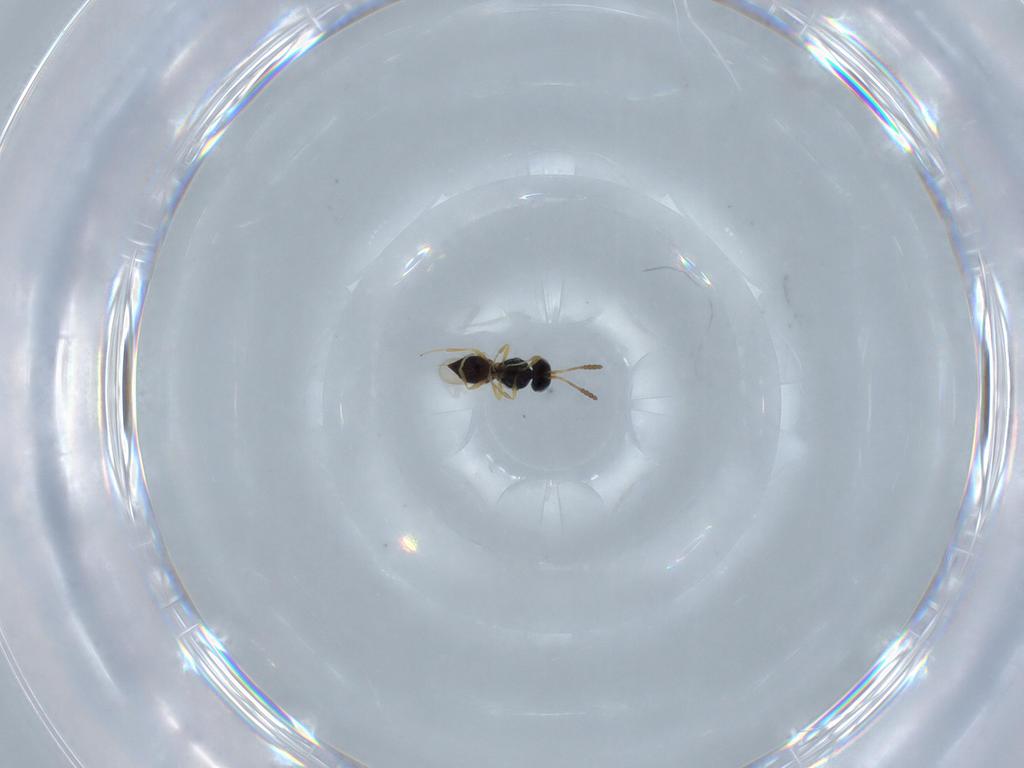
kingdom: Animalia
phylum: Arthropoda
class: Insecta
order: Hymenoptera
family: Scelionidae
